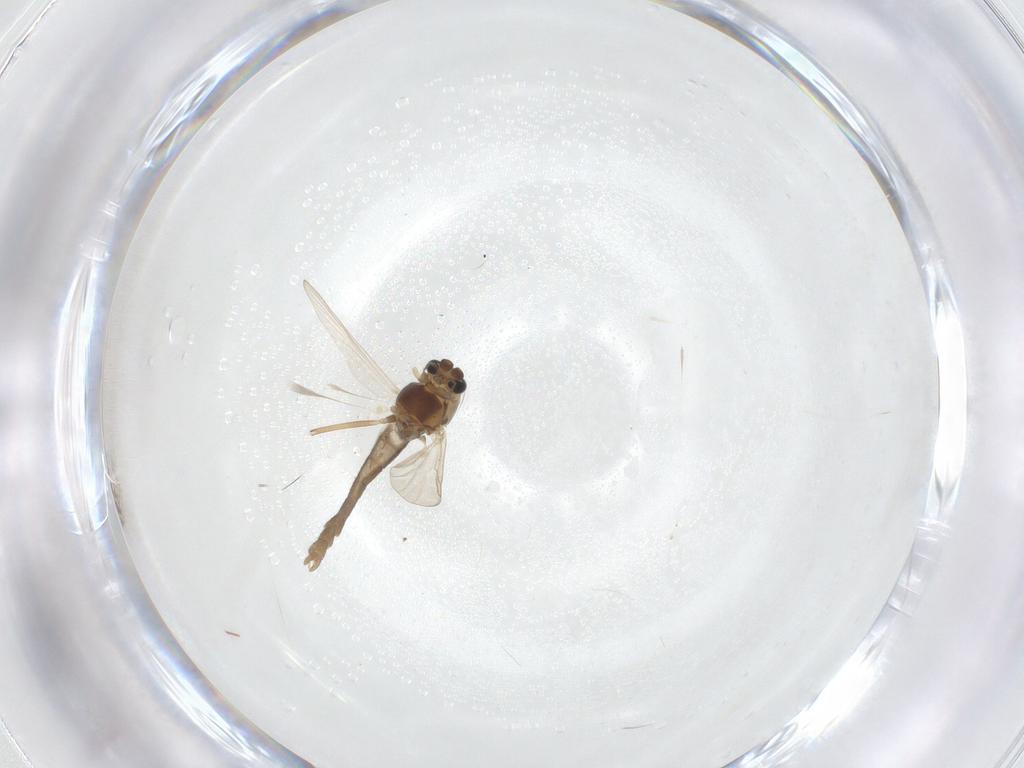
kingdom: Animalia
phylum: Arthropoda
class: Insecta
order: Diptera
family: Chironomidae
